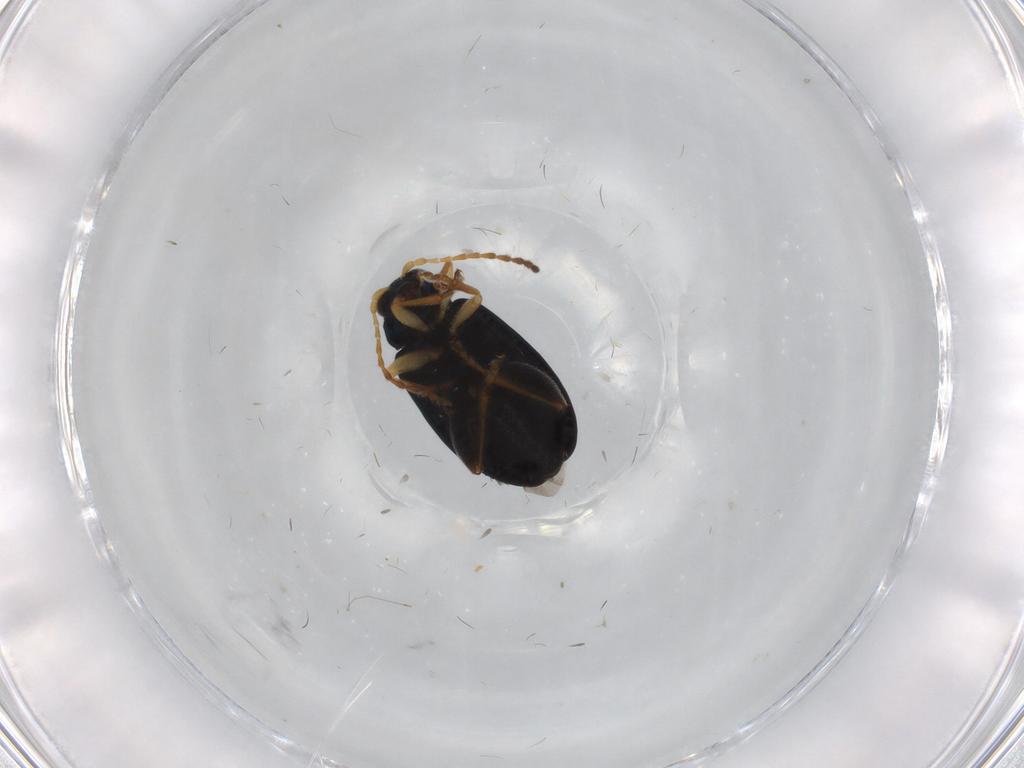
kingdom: Animalia
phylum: Arthropoda
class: Insecta
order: Coleoptera
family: Chrysomelidae
